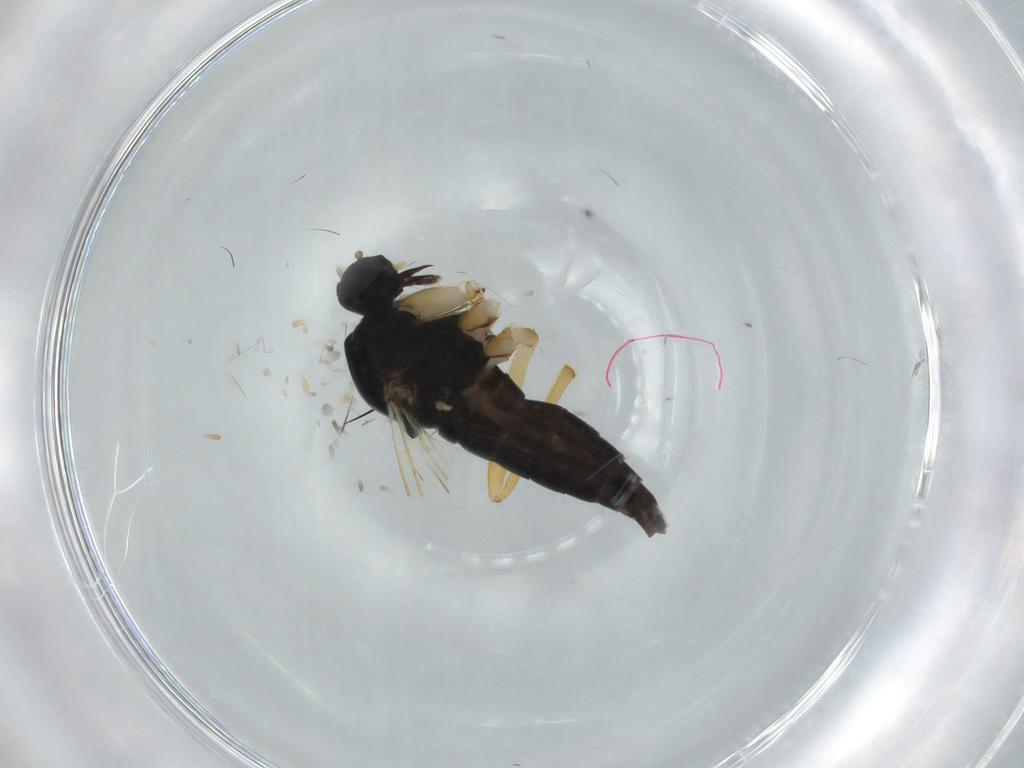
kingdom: Animalia
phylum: Arthropoda
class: Insecta
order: Diptera
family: Hybotidae
